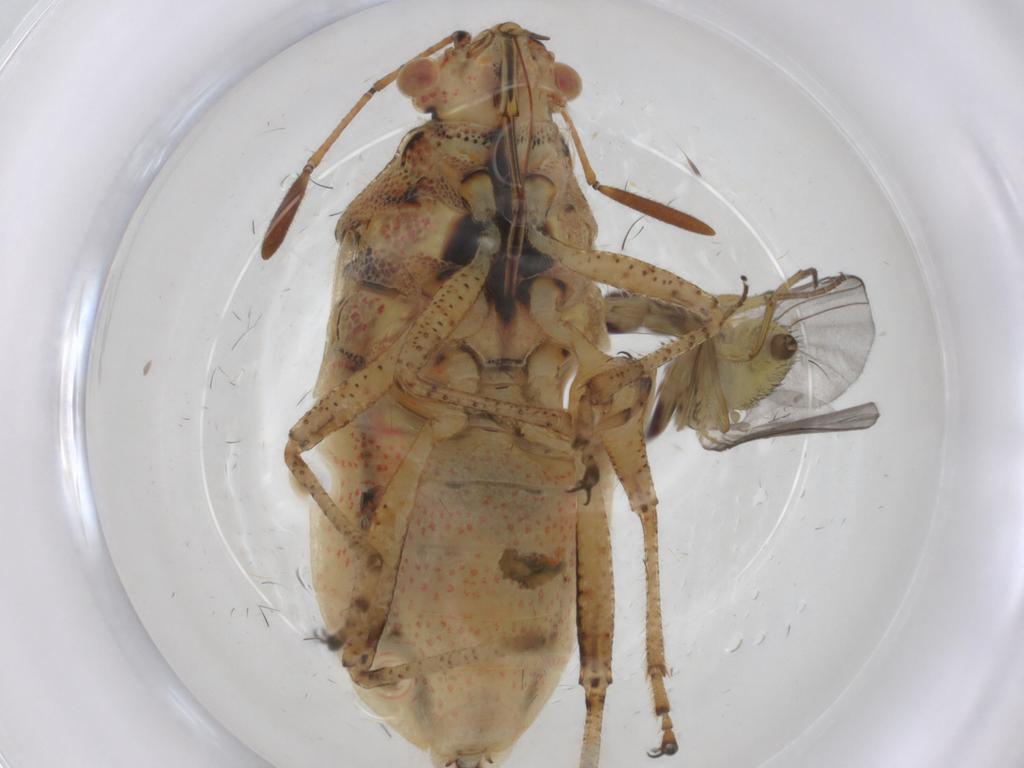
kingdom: Animalia
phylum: Arthropoda
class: Insecta
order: Hemiptera
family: Rhopalidae
